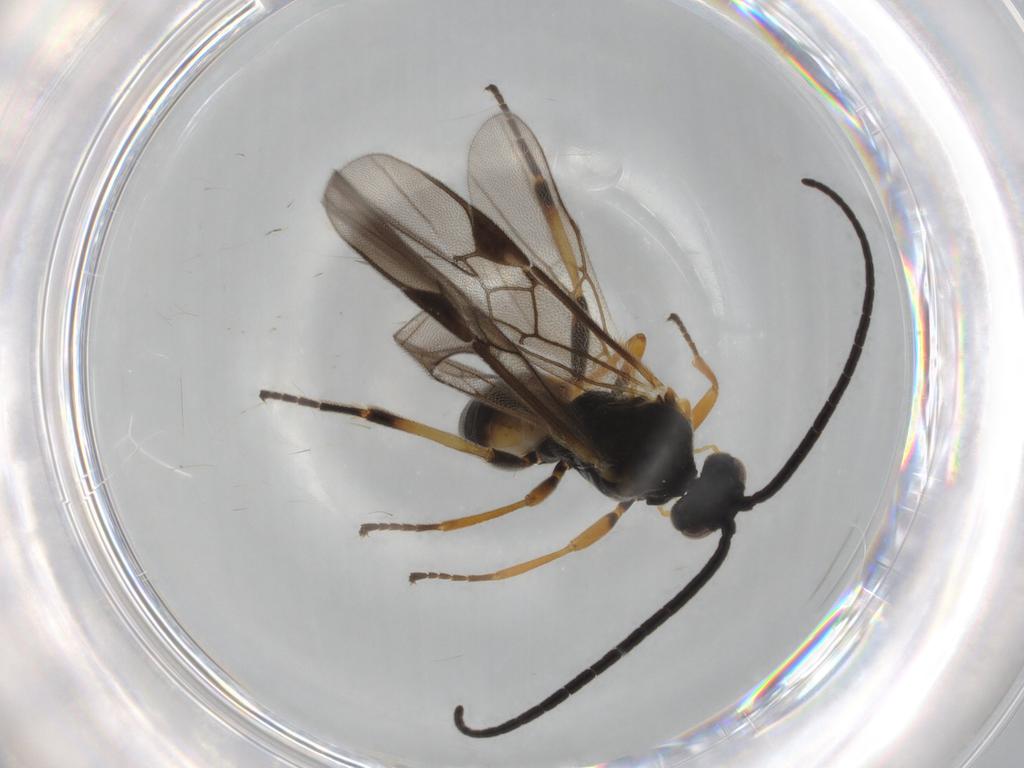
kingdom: Animalia
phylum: Arthropoda
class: Insecta
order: Hymenoptera
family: Braconidae
